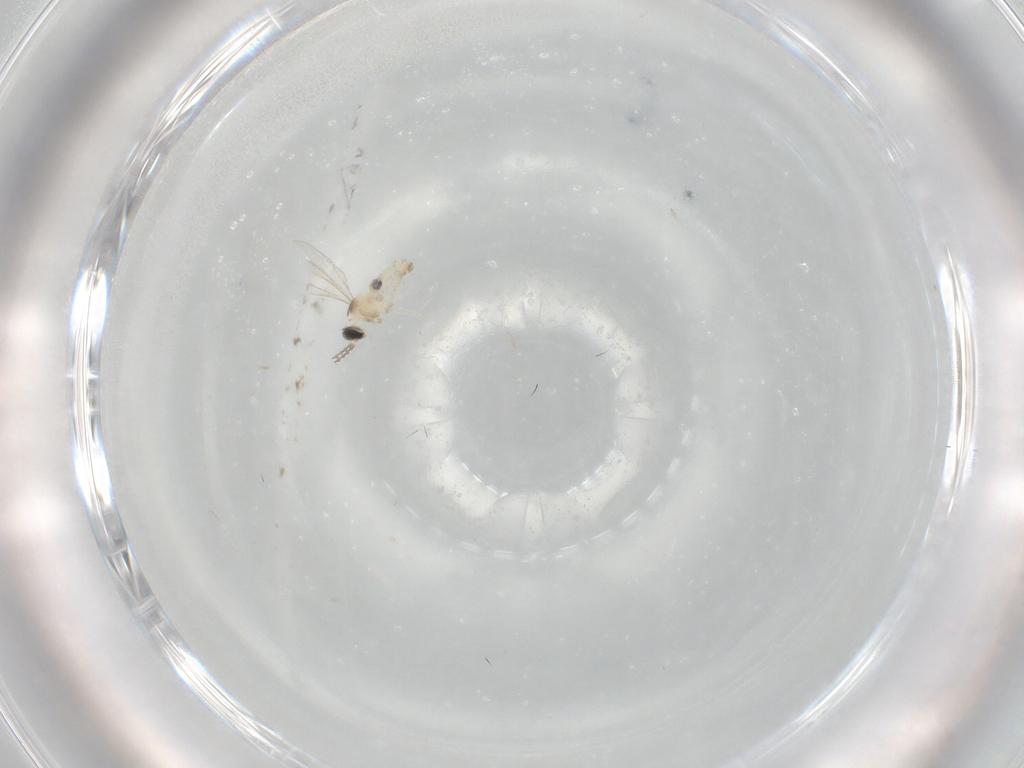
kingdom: Animalia
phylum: Arthropoda
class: Insecta
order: Diptera
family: Cecidomyiidae
